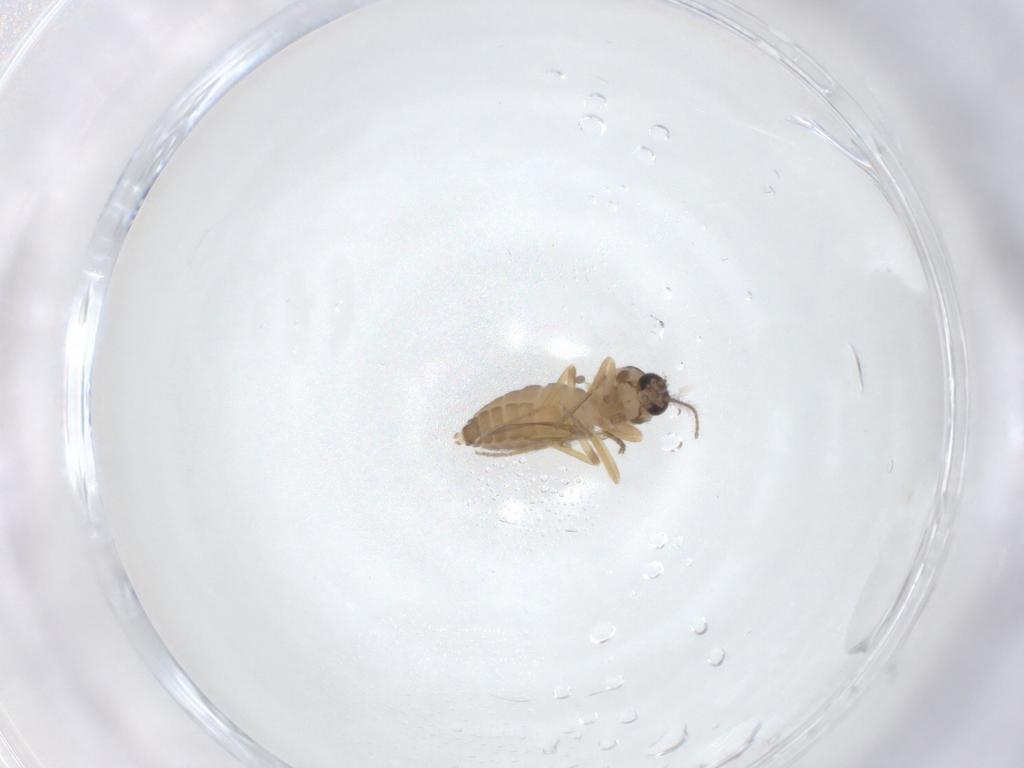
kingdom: Animalia
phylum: Arthropoda
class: Insecta
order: Diptera
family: Ceratopogonidae
